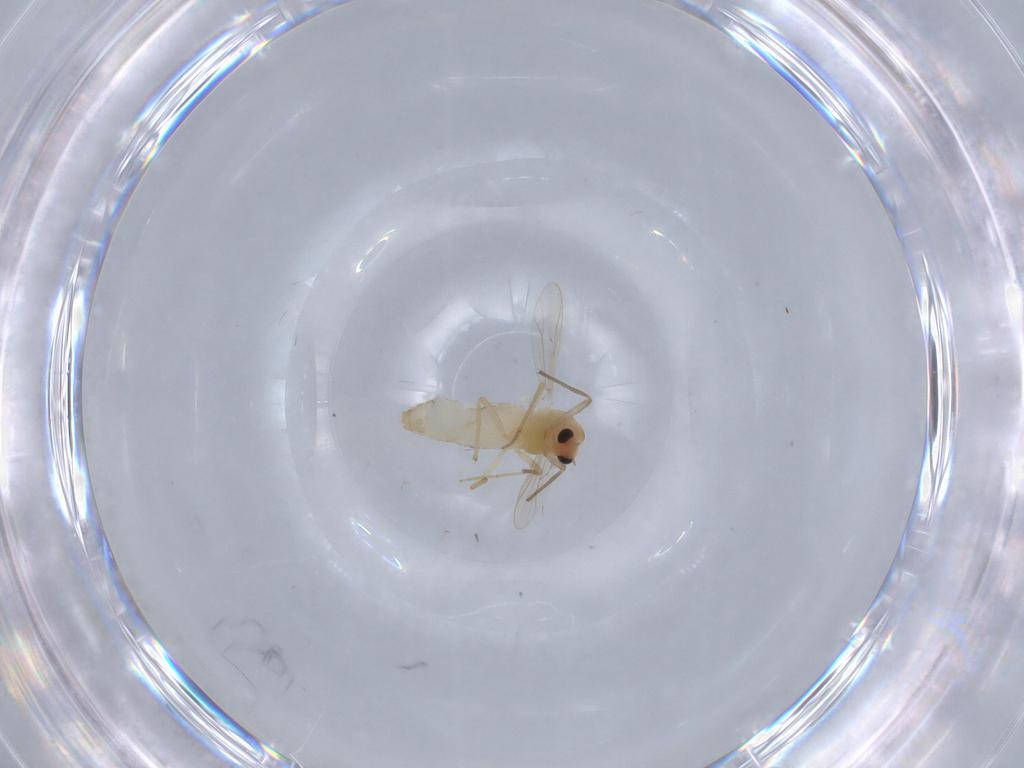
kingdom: Animalia
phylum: Arthropoda
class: Insecta
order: Diptera
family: Chironomidae
